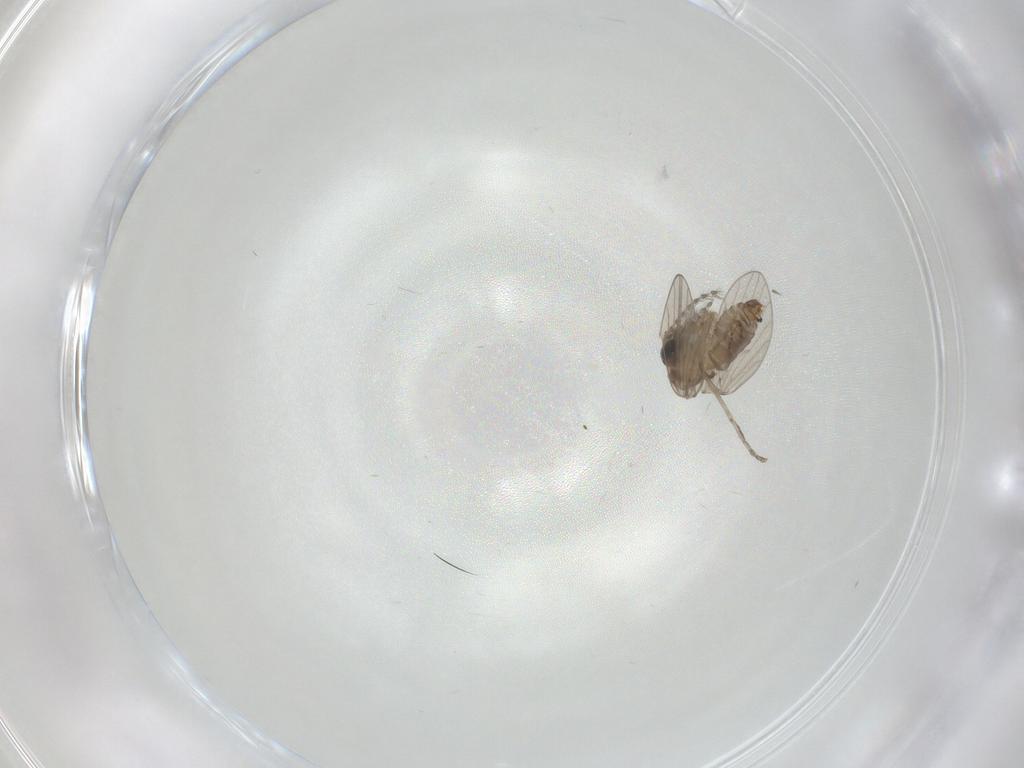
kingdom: Animalia
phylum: Arthropoda
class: Insecta
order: Diptera
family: Psychodidae
